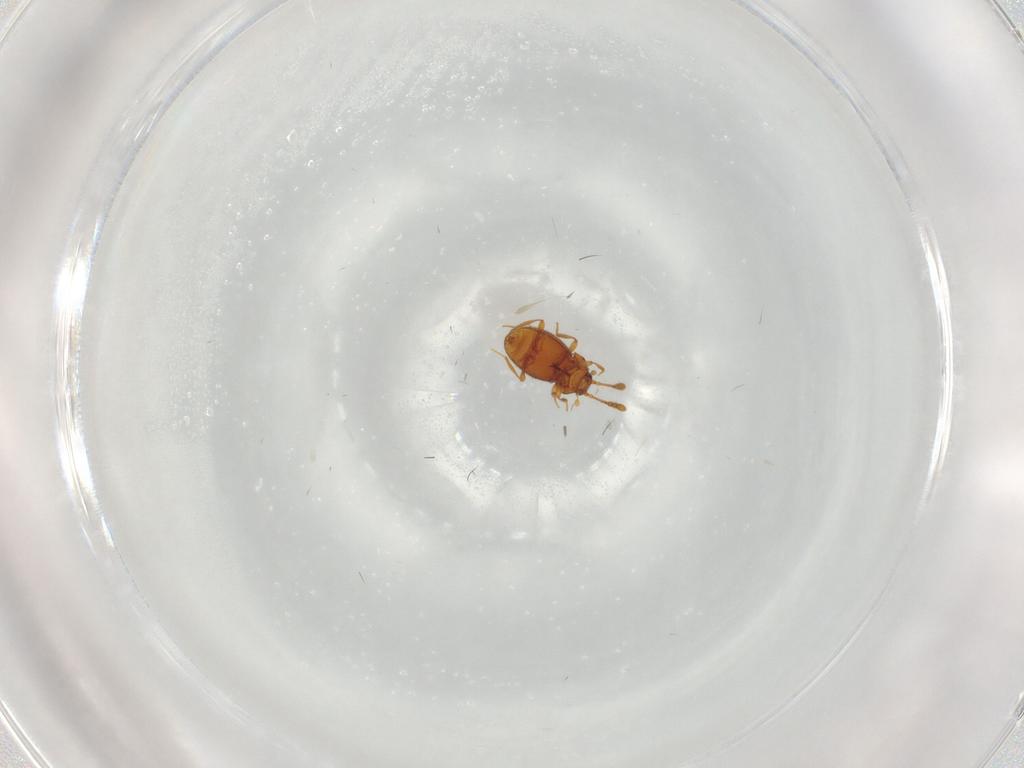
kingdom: Animalia
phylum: Arthropoda
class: Insecta
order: Coleoptera
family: Staphylinidae
